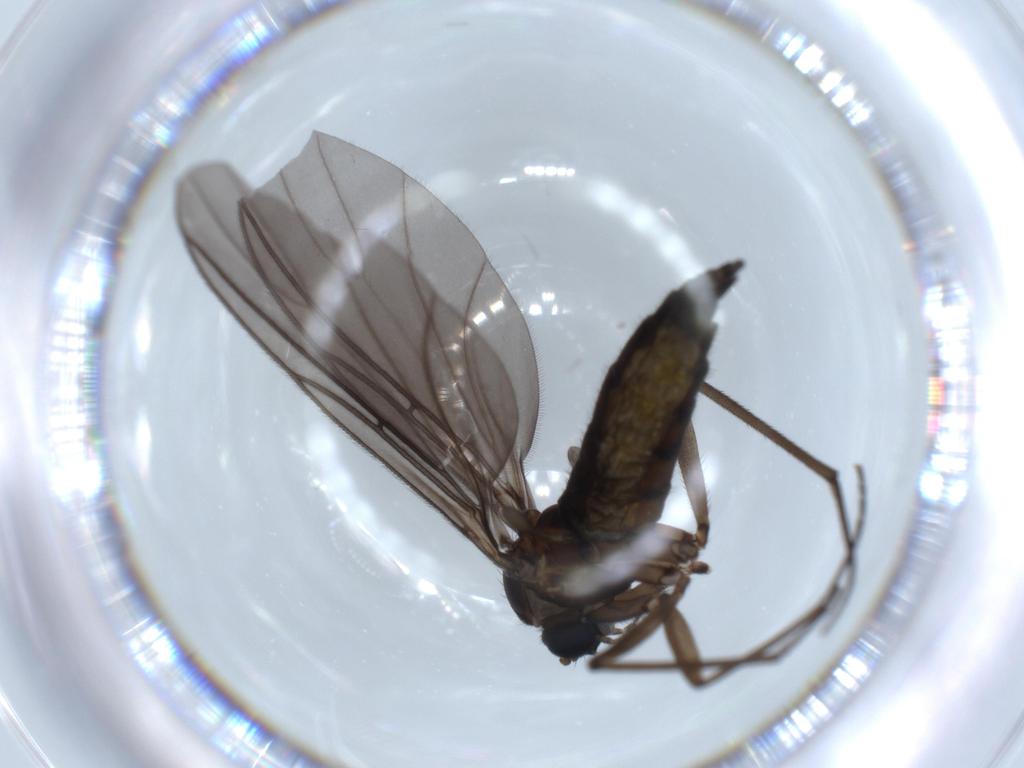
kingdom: Animalia
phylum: Arthropoda
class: Insecta
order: Diptera
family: Sciaridae
